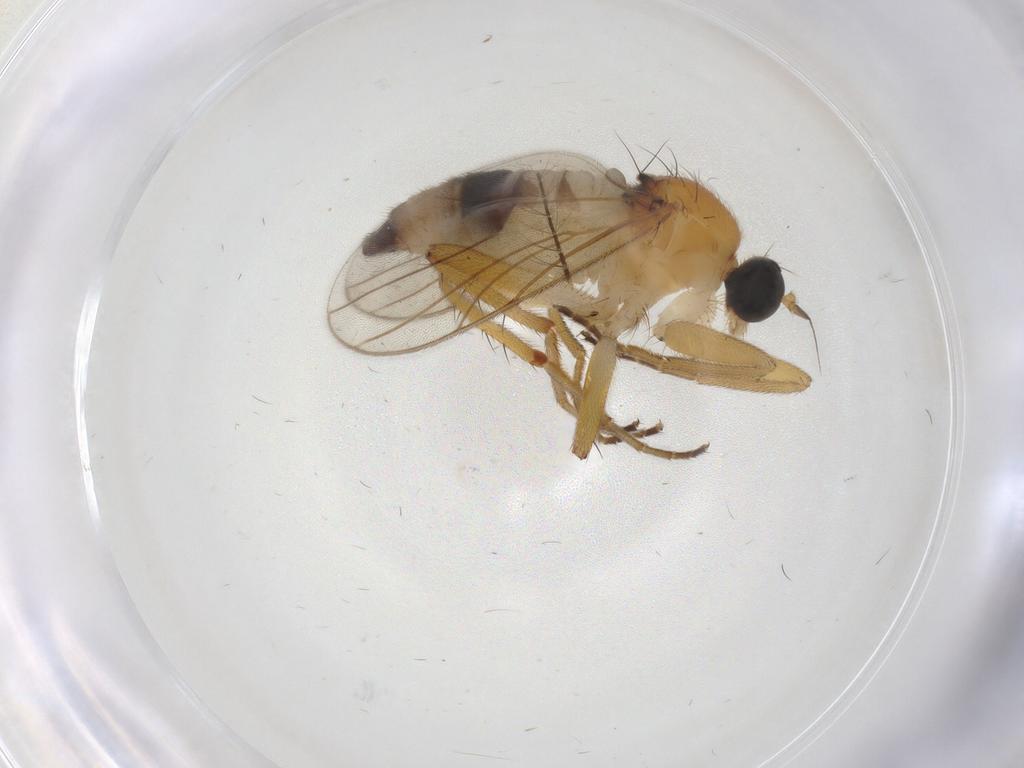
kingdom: Animalia
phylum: Arthropoda
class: Insecta
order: Diptera
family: Hybotidae
